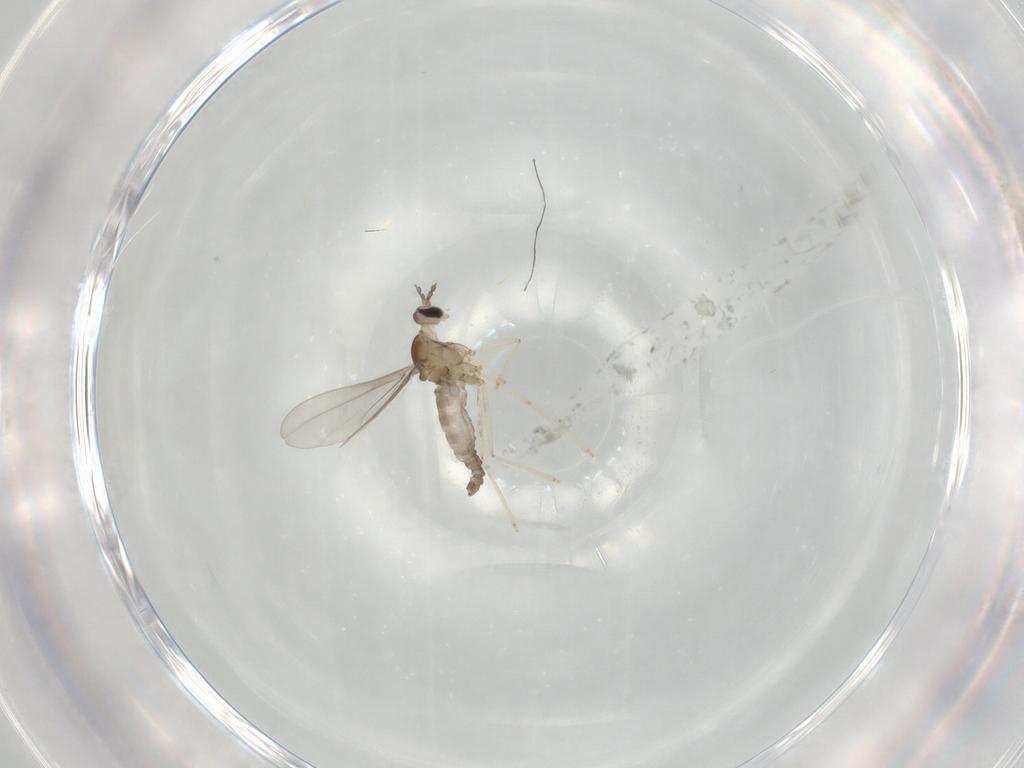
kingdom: Animalia
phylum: Arthropoda
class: Insecta
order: Diptera
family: Cecidomyiidae
